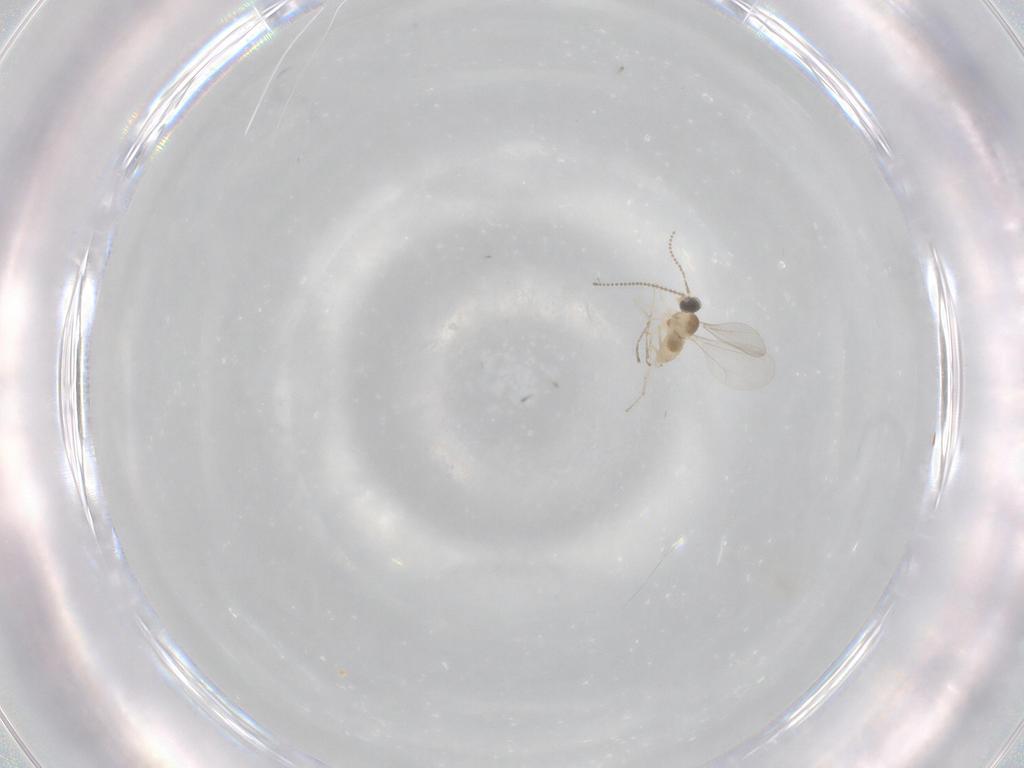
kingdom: Animalia
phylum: Arthropoda
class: Insecta
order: Diptera
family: Cecidomyiidae
